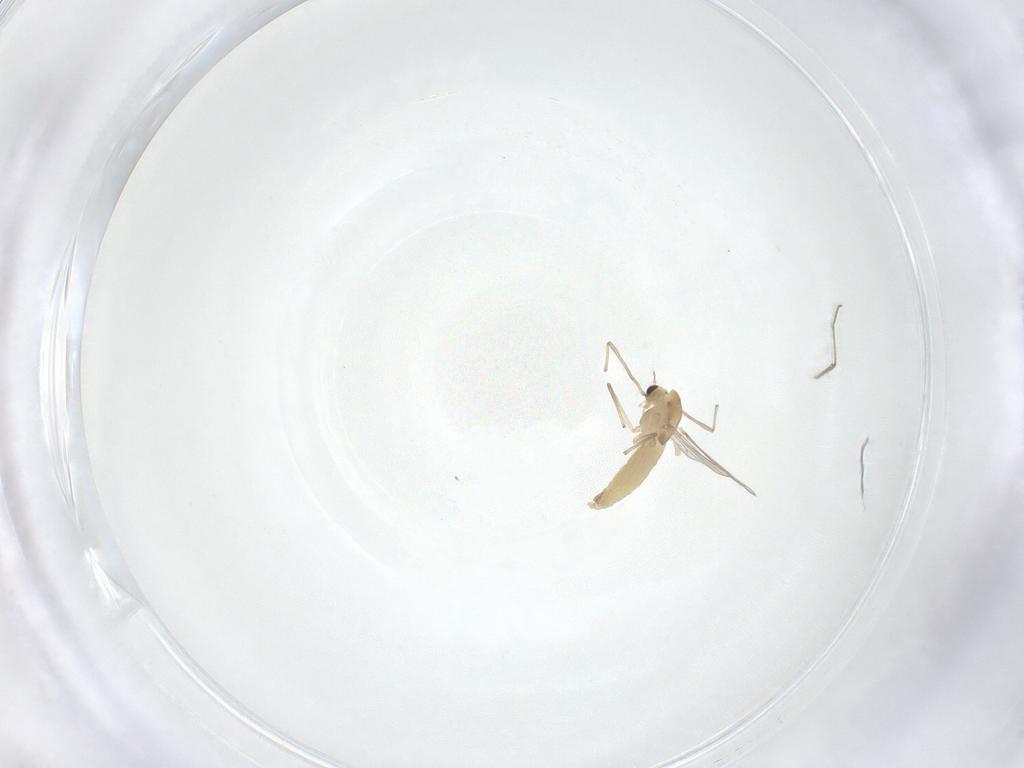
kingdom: Animalia
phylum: Arthropoda
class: Insecta
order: Diptera
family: Chironomidae
